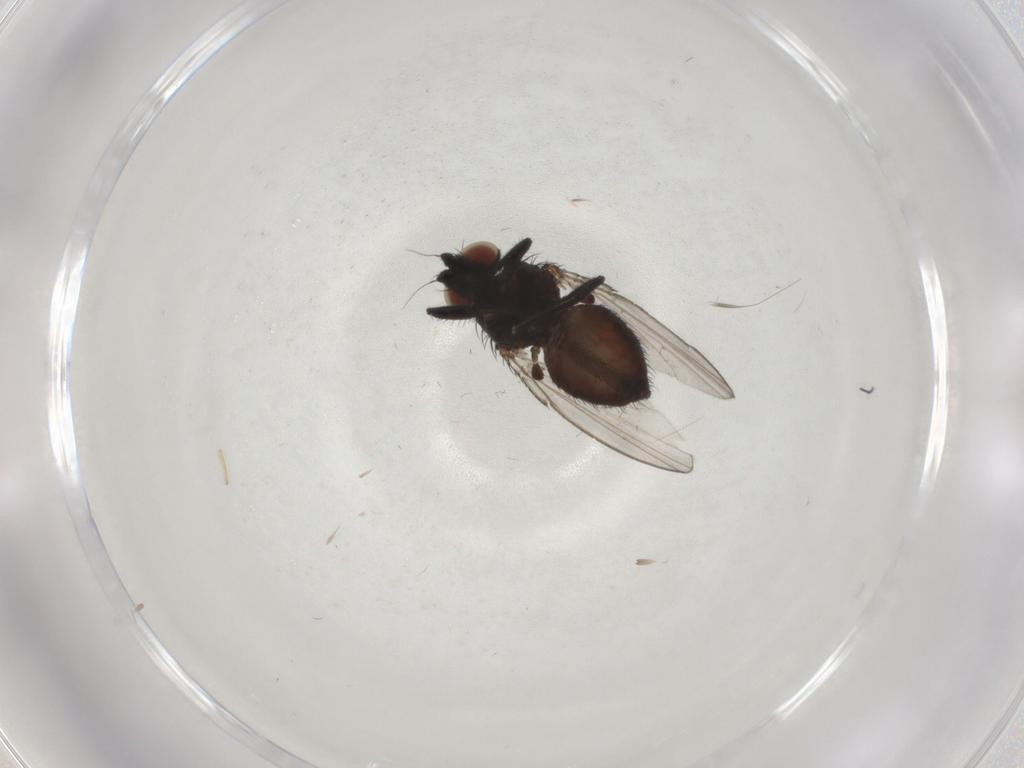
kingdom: Animalia
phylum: Arthropoda
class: Insecta
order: Diptera
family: Milichiidae
